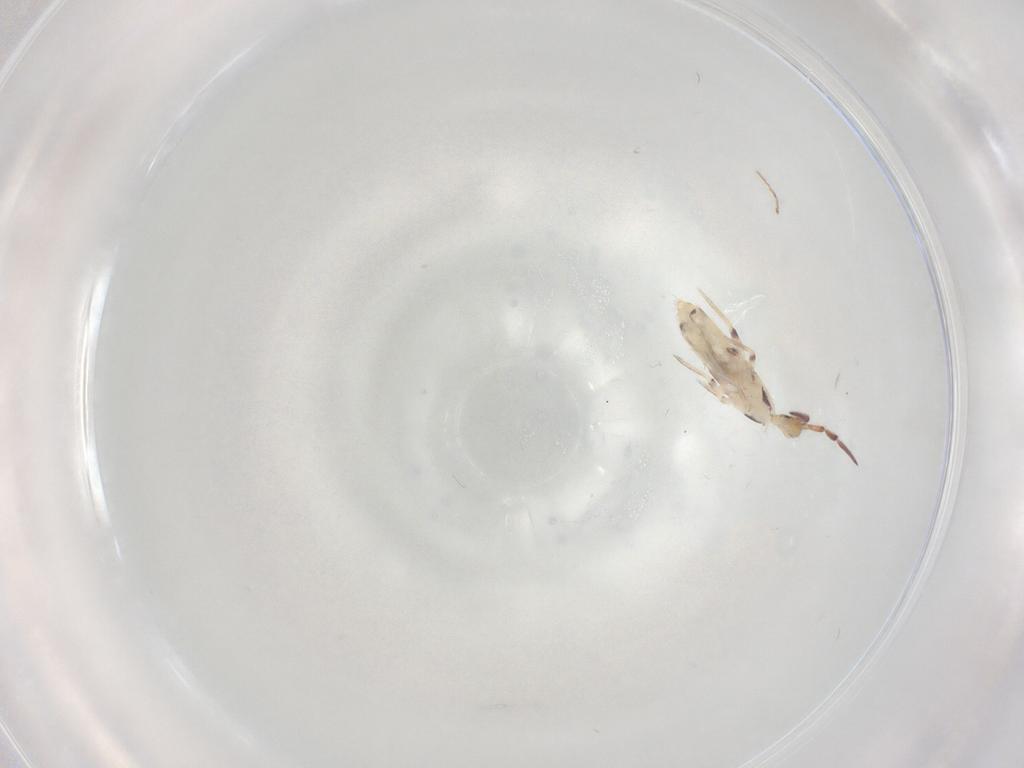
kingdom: Animalia
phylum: Arthropoda
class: Collembola
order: Entomobryomorpha
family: Entomobryidae
